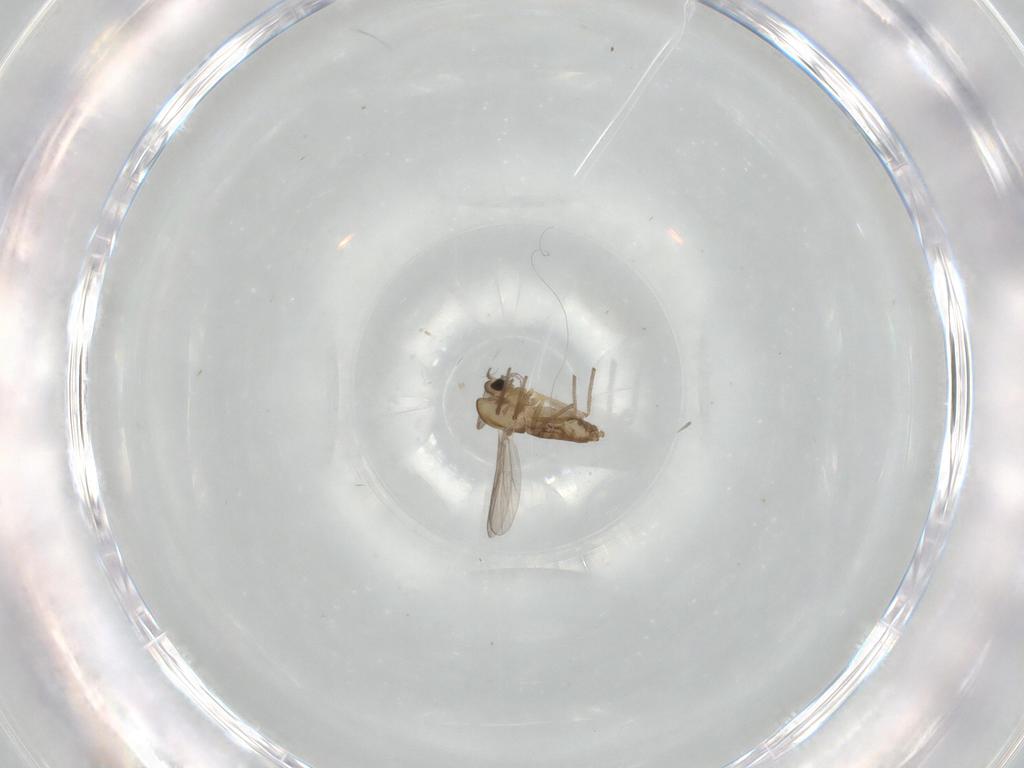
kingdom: Animalia
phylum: Arthropoda
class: Insecta
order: Diptera
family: Chironomidae
